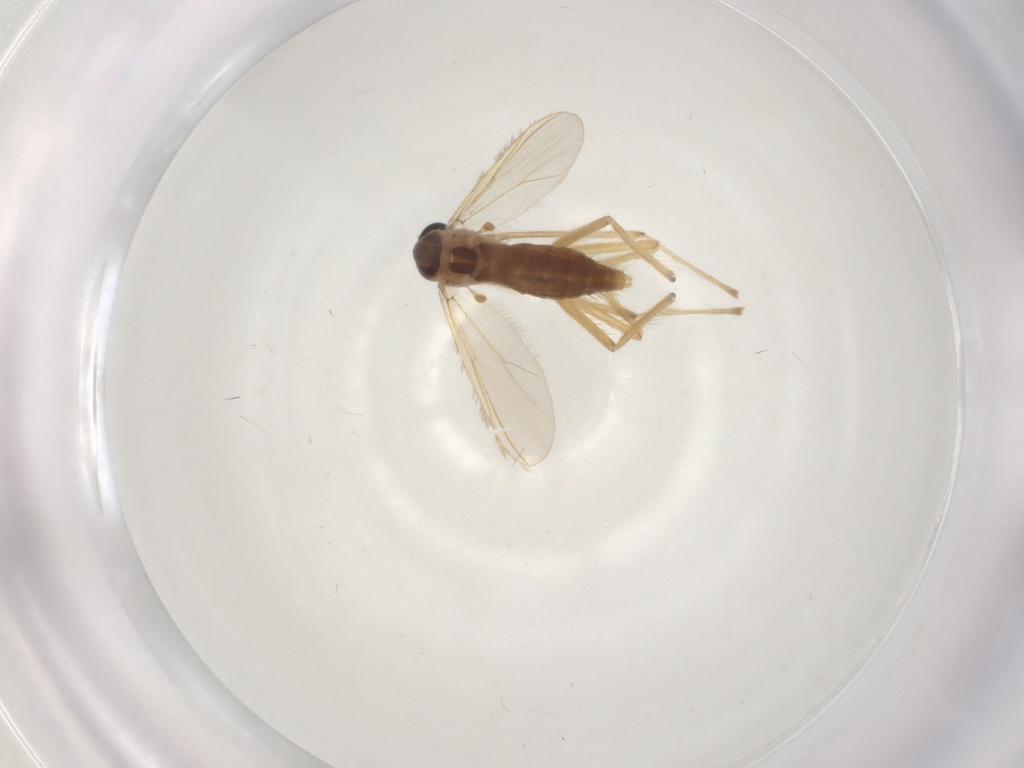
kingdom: Animalia
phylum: Arthropoda
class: Insecta
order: Diptera
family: Chironomidae
